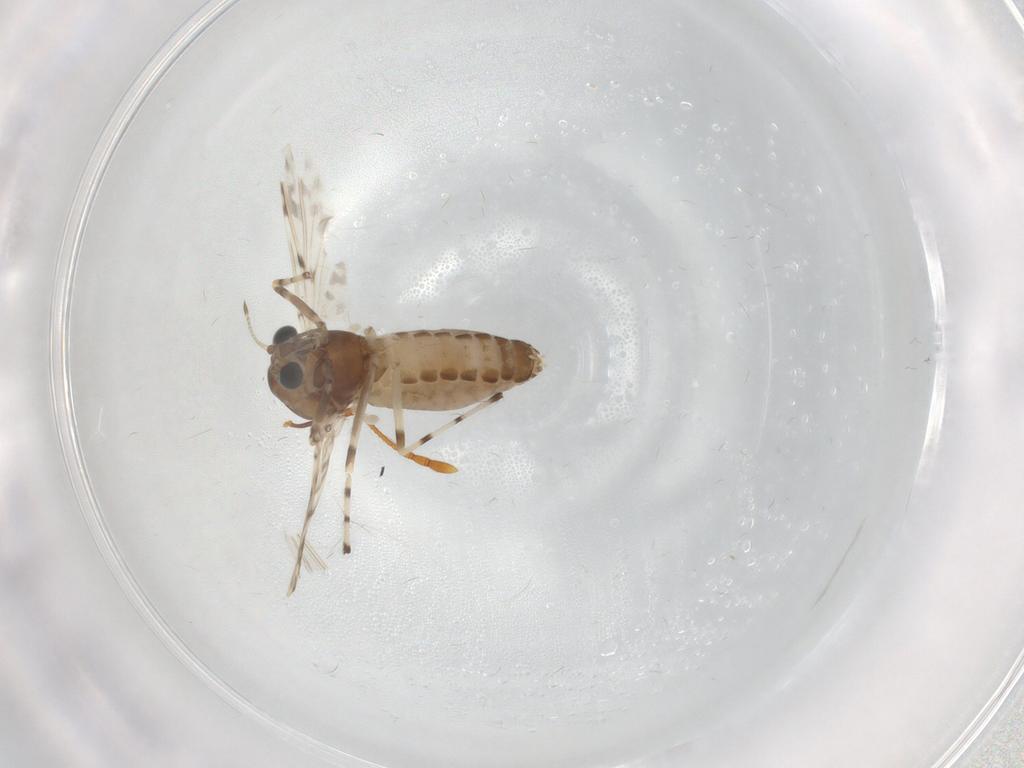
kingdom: Animalia
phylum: Arthropoda
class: Insecta
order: Diptera
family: Chironomidae
